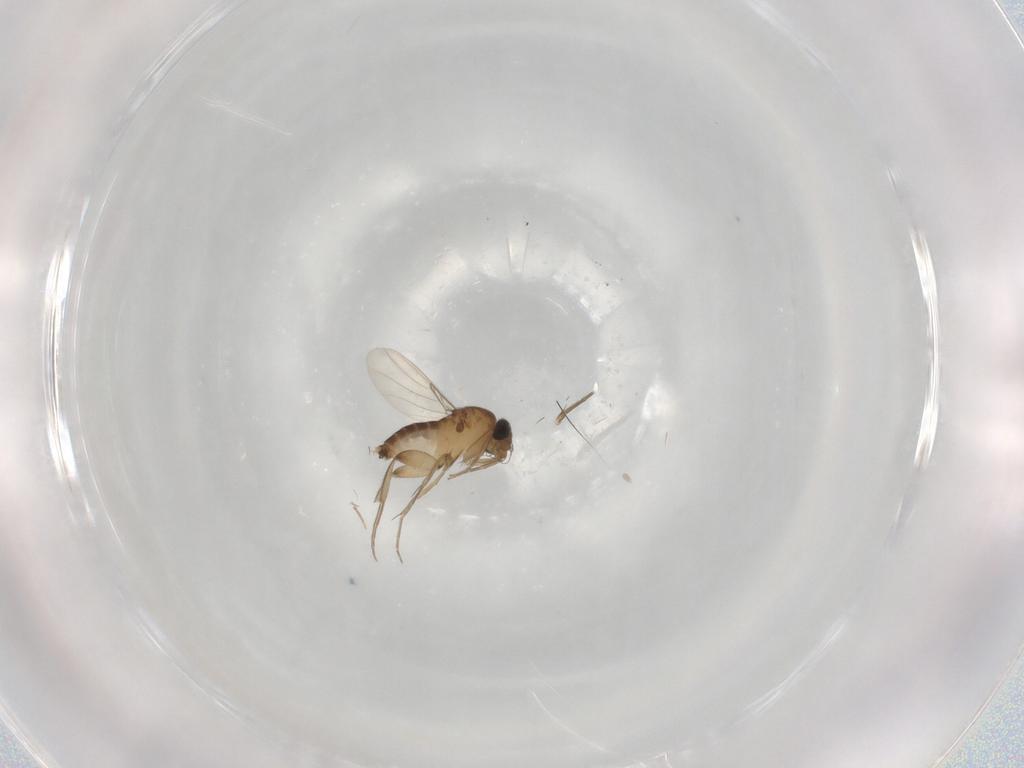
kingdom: Animalia
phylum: Arthropoda
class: Insecta
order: Diptera
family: Phoridae
